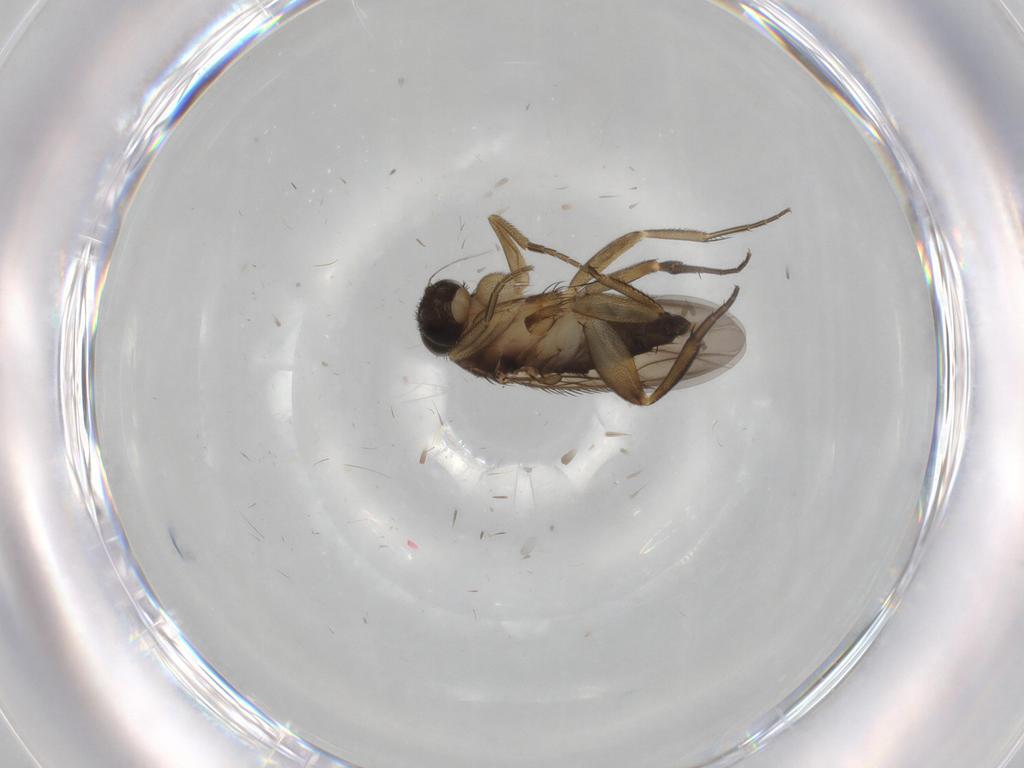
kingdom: Animalia
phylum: Arthropoda
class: Insecta
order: Diptera
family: Phoridae
